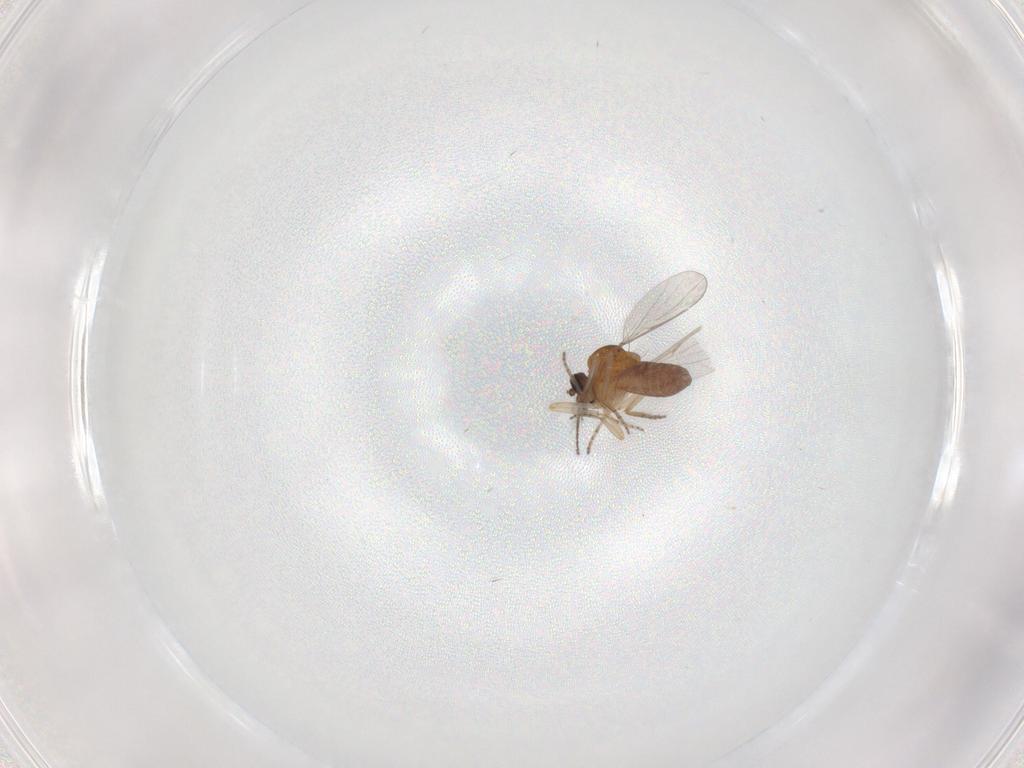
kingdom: Animalia
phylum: Arthropoda
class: Insecta
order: Diptera
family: Ceratopogonidae
